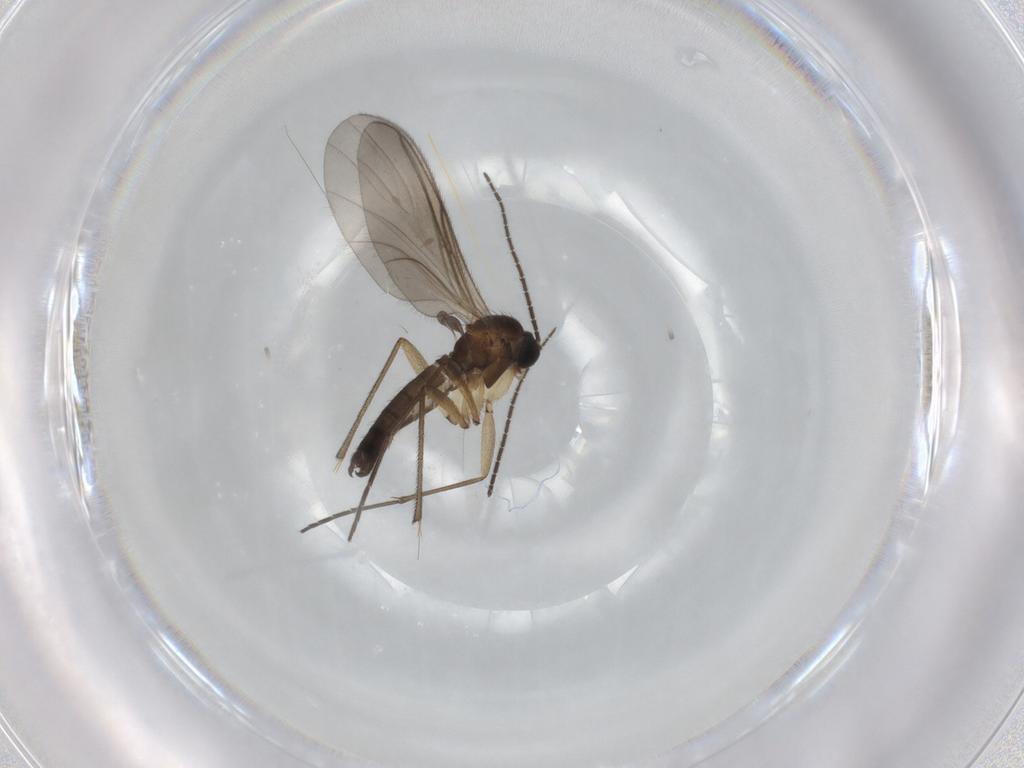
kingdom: Animalia
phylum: Arthropoda
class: Insecta
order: Diptera
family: Sciaridae
